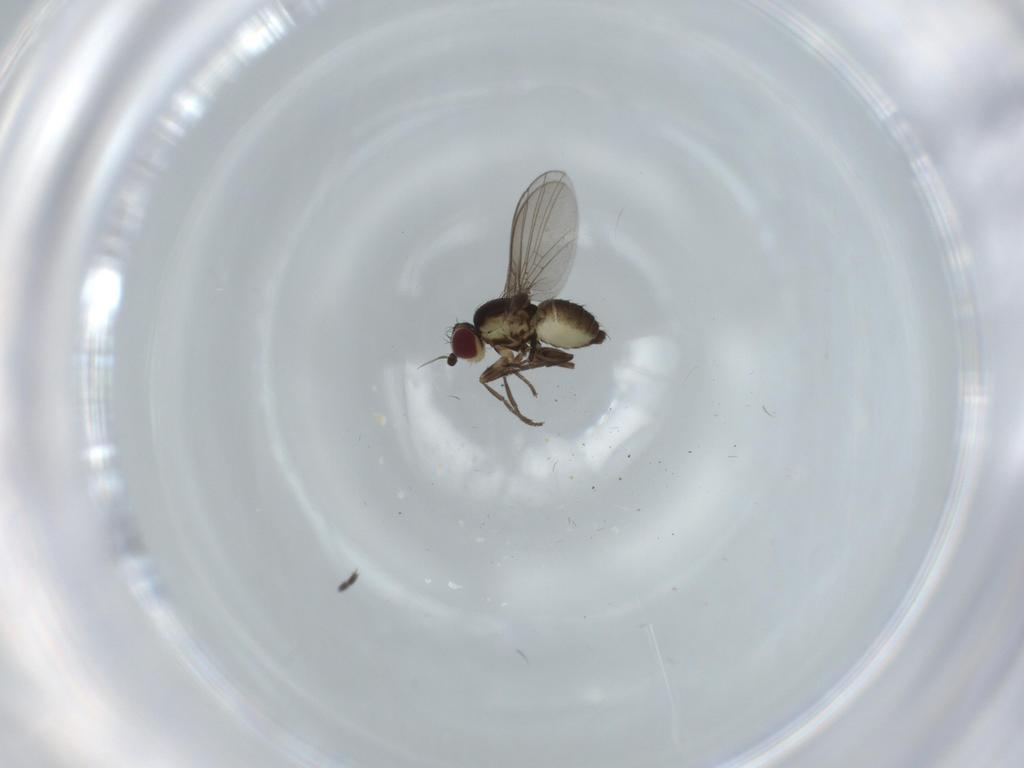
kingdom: Animalia
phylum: Arthropoda
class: Insecta
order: Diptera
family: Agromyzidae
